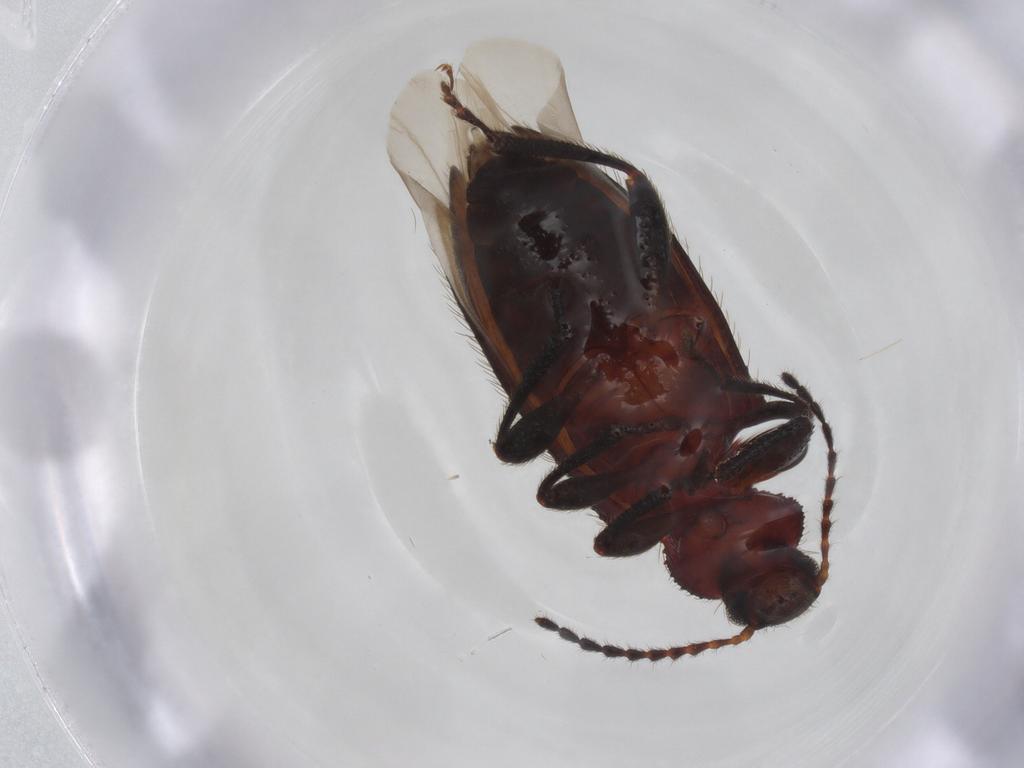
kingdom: Animalia
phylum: Arthropoda
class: Insecta
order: Coleoptera
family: Tenebrionidae
